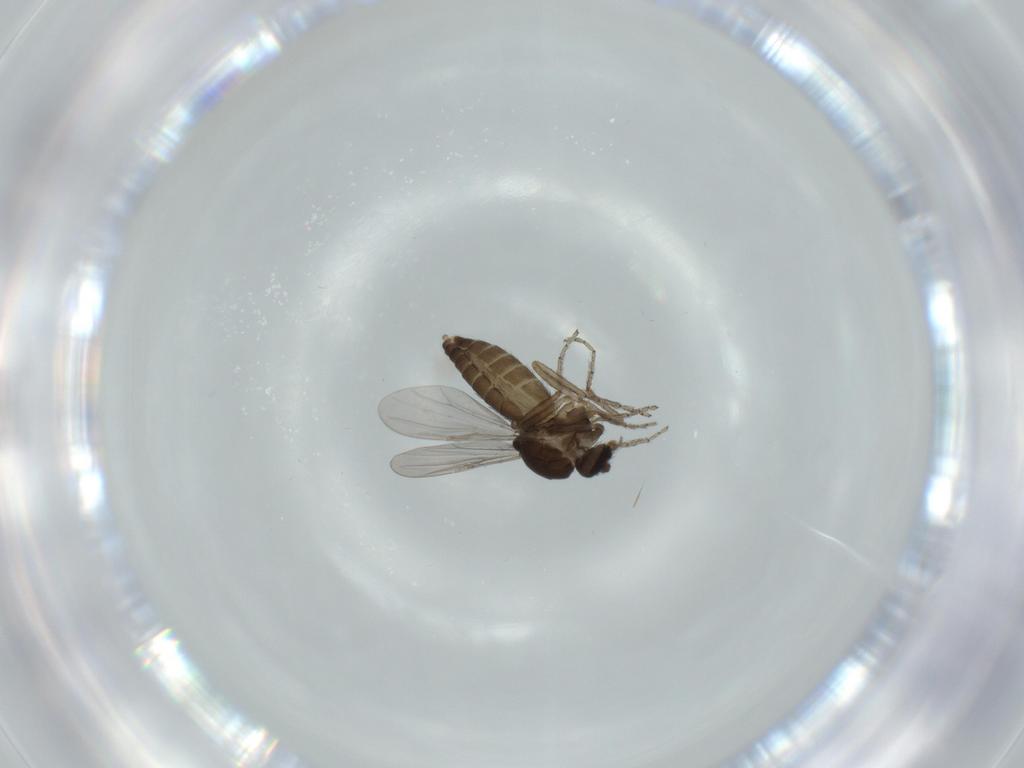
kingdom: Animalia
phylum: Arthropoda
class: Insecta
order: Diptera
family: Ceratopogonidae
